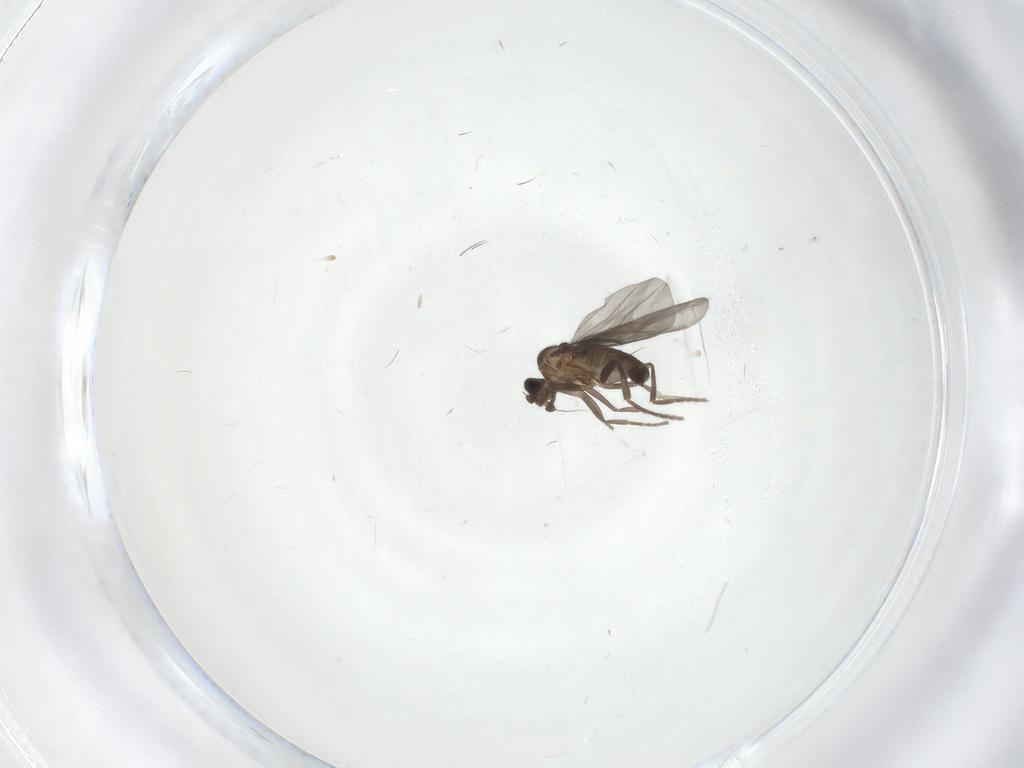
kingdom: Animalia
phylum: Arthropoda
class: Insecta
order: Diptera
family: Phoridae
